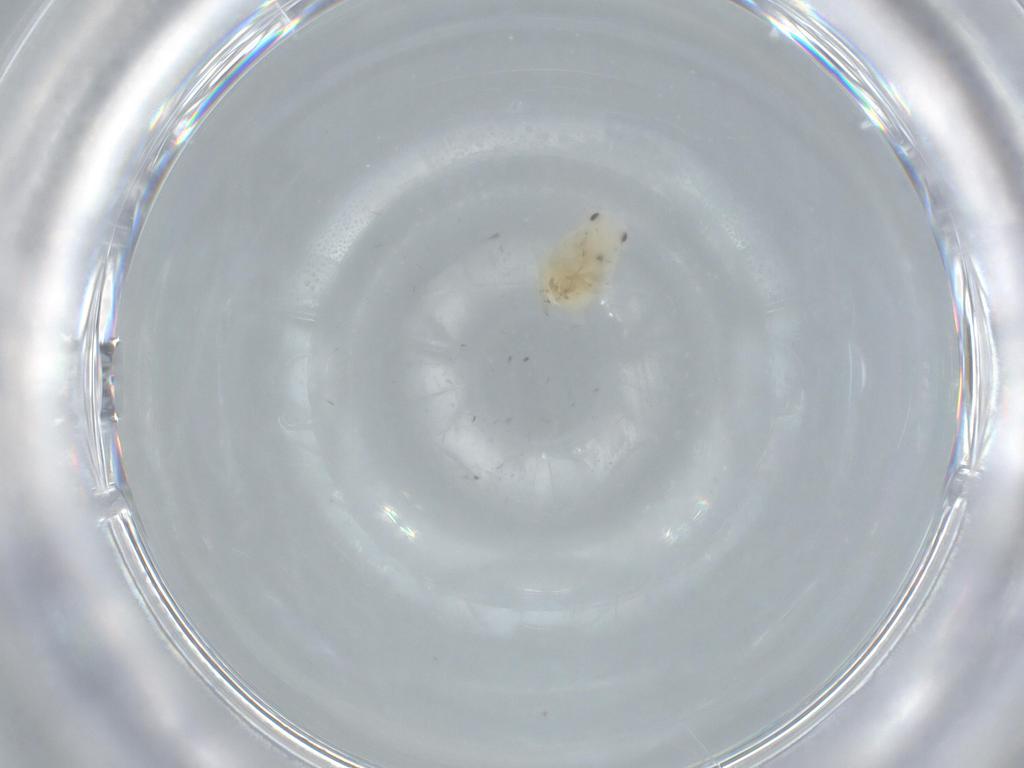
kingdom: Animalia
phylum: Arthropoda
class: Insecta
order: Hemiptera
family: Flatidae
